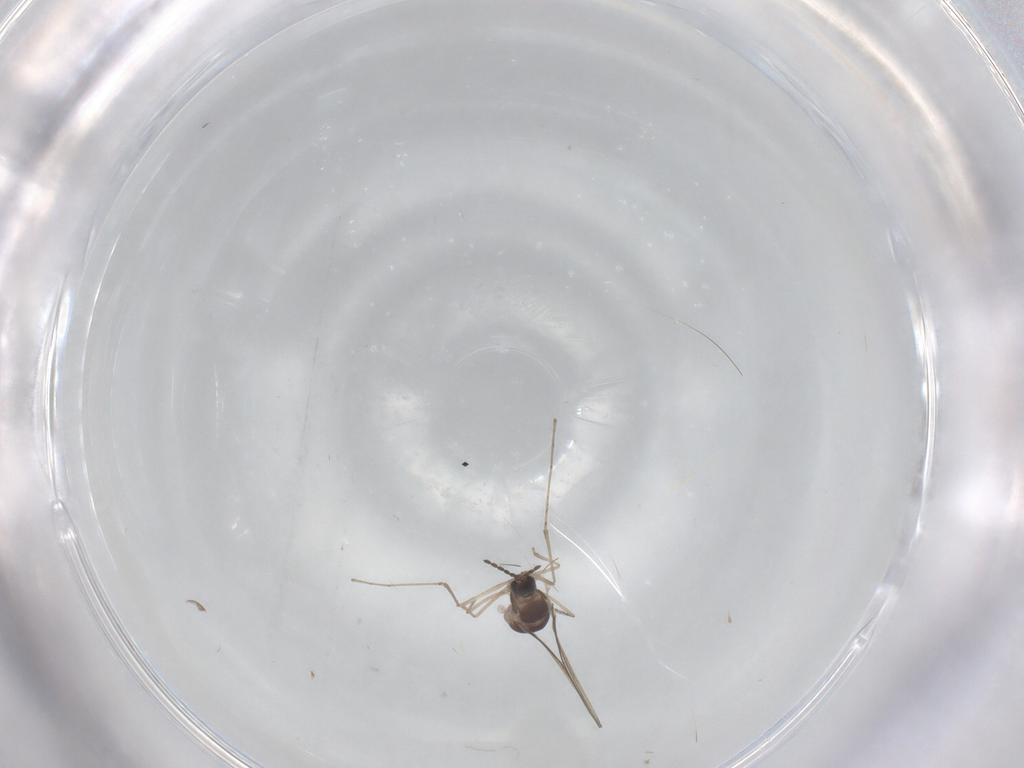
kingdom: Animalia
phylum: Arthropoda
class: Insecta
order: Diptera
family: Cecidomyiidae
